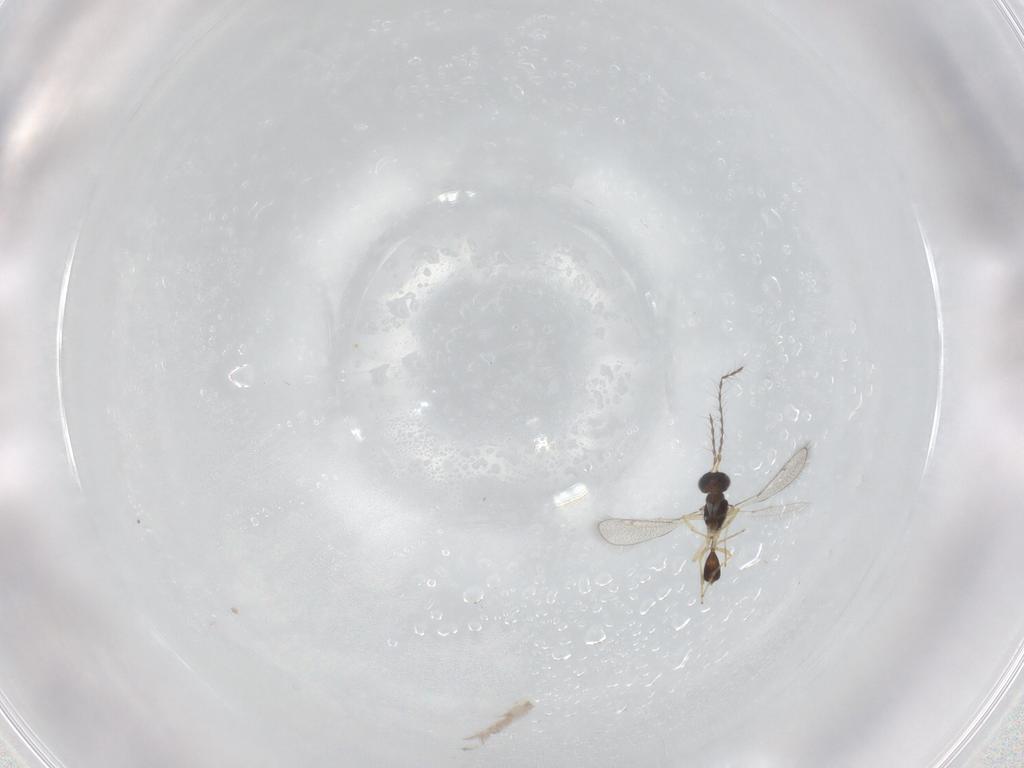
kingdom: Animalia
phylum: Arthropoda
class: Insecta
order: Hymenoptera
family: Diparidae
